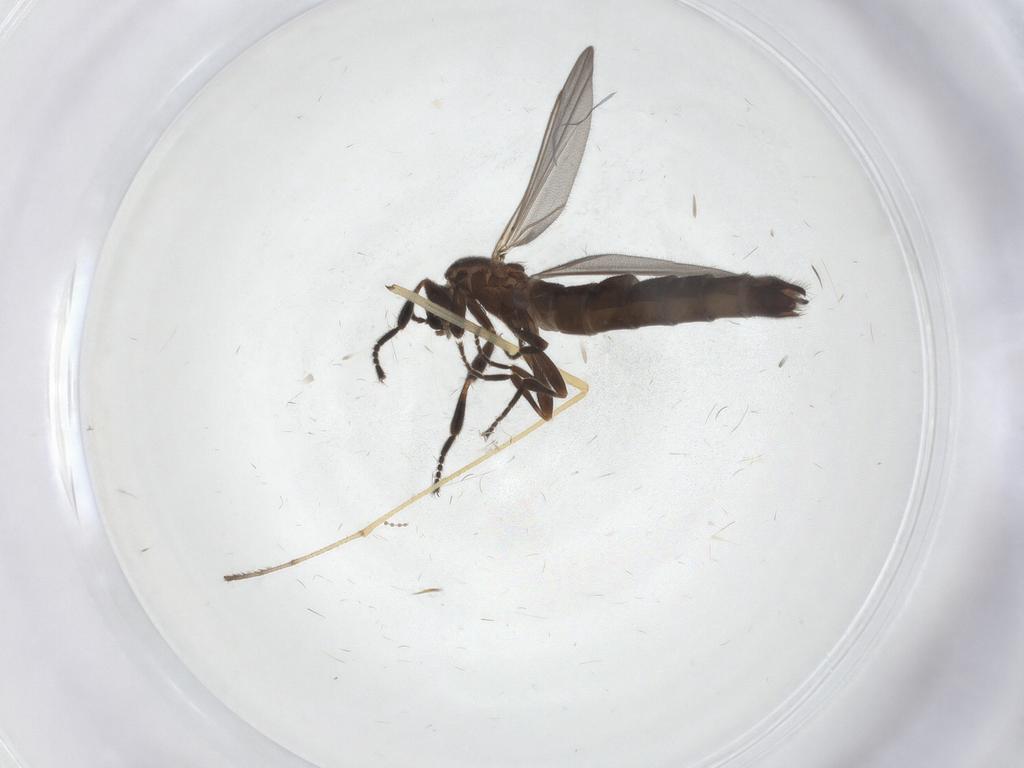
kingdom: Animalia
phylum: Arthropoda
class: Insecta
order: Diptera
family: Scatopsidae
